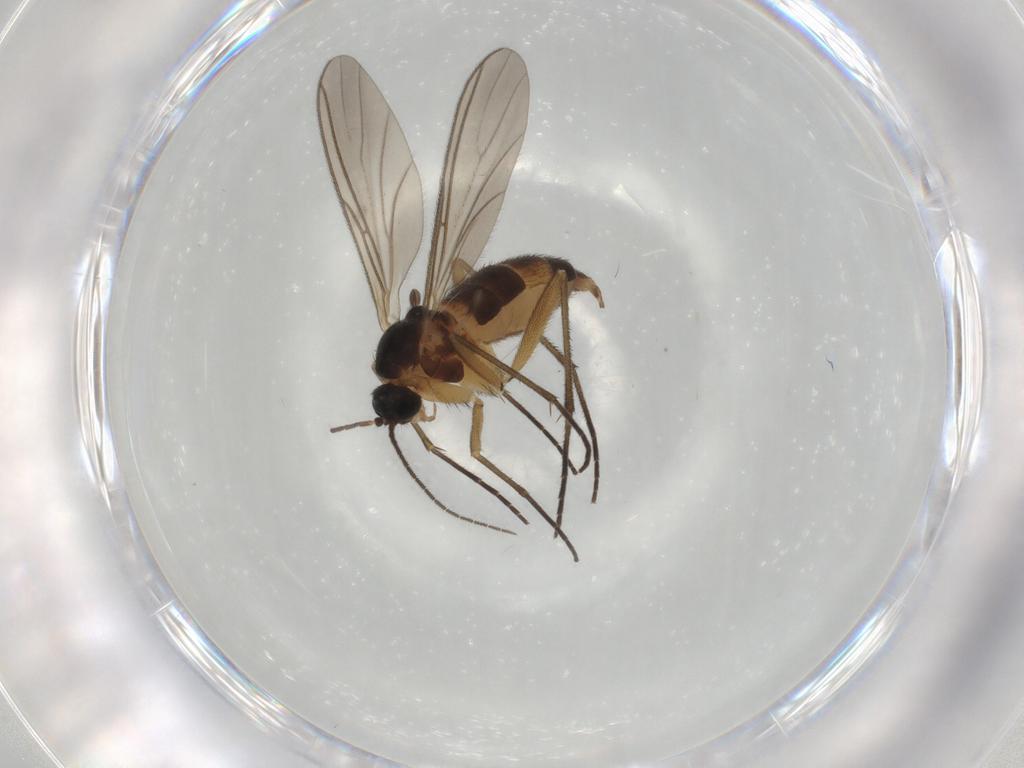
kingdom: Animalia
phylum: Arthropoda
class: Insecta
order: Diptera
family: Sciaridae
